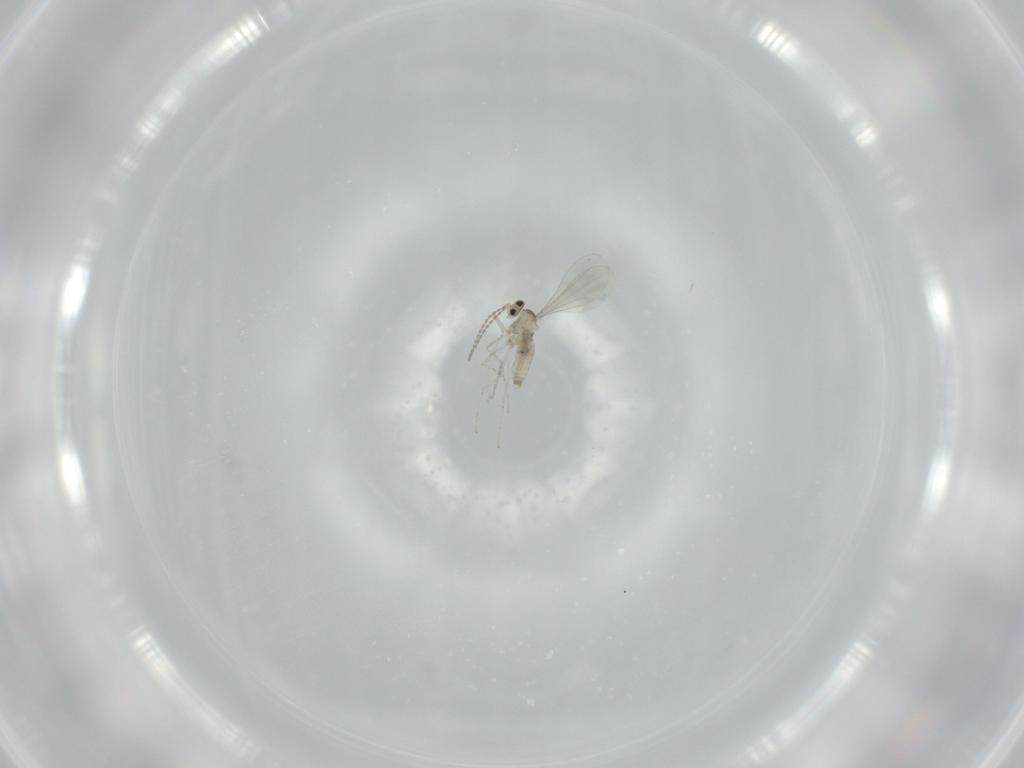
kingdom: Animalia
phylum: Arthropoda
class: Insecta
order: Diptera
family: Cecidomyiidae
